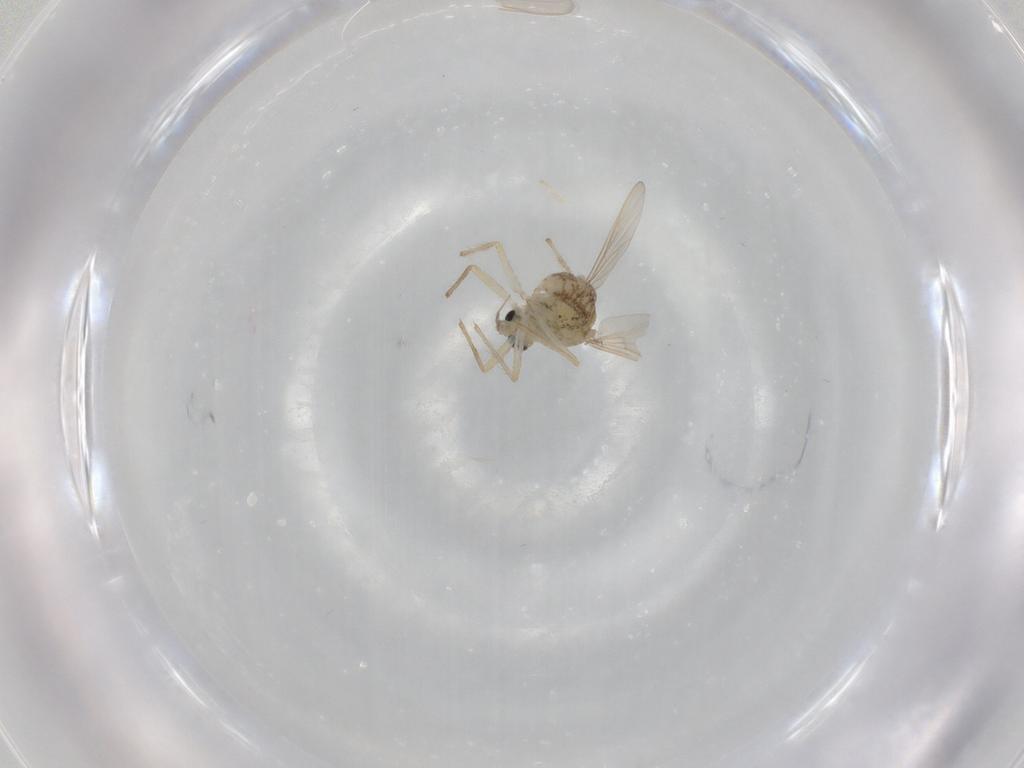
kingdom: Animalia
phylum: Arthropoda
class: Insecta
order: Diptera
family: Chironomidae
